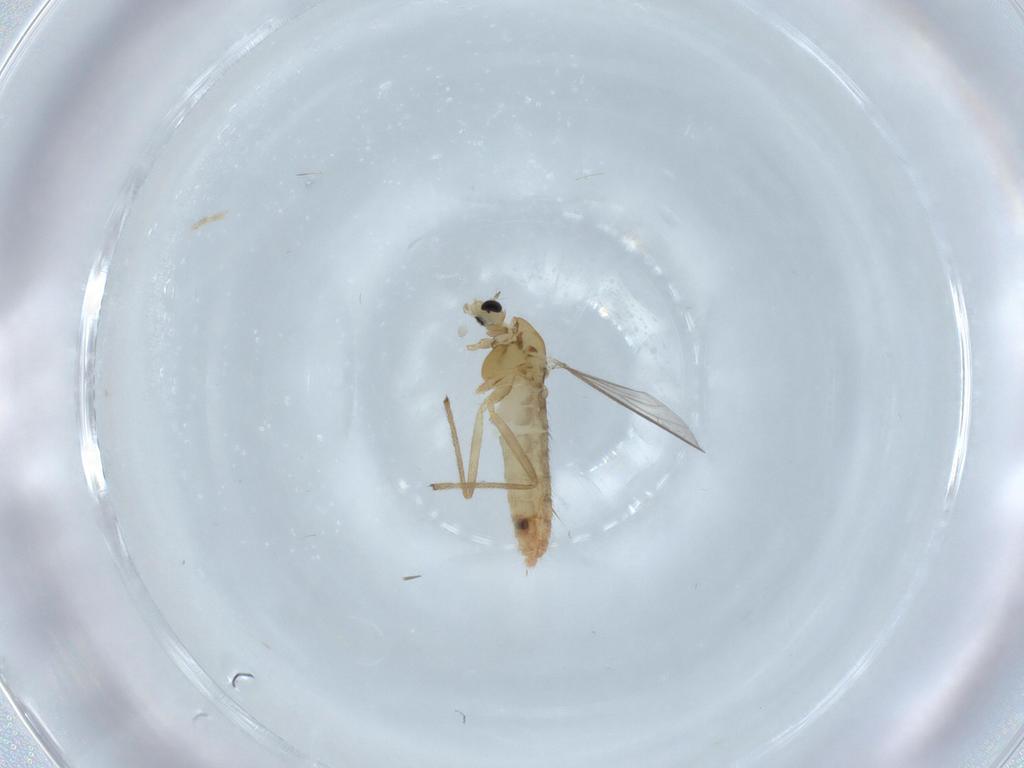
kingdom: Animalia
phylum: Arthropoda
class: Insecta
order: Diptera
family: Chironomidae
